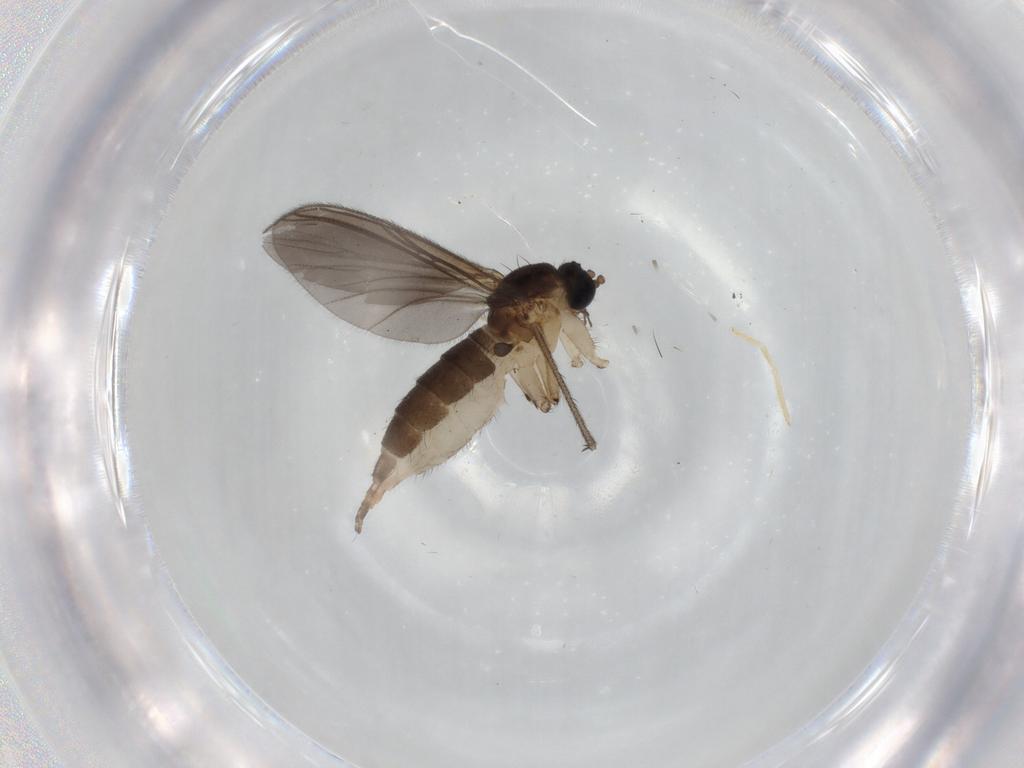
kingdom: Animalia
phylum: Arthropoda
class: Insecta
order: Diptera
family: Sciaridae
